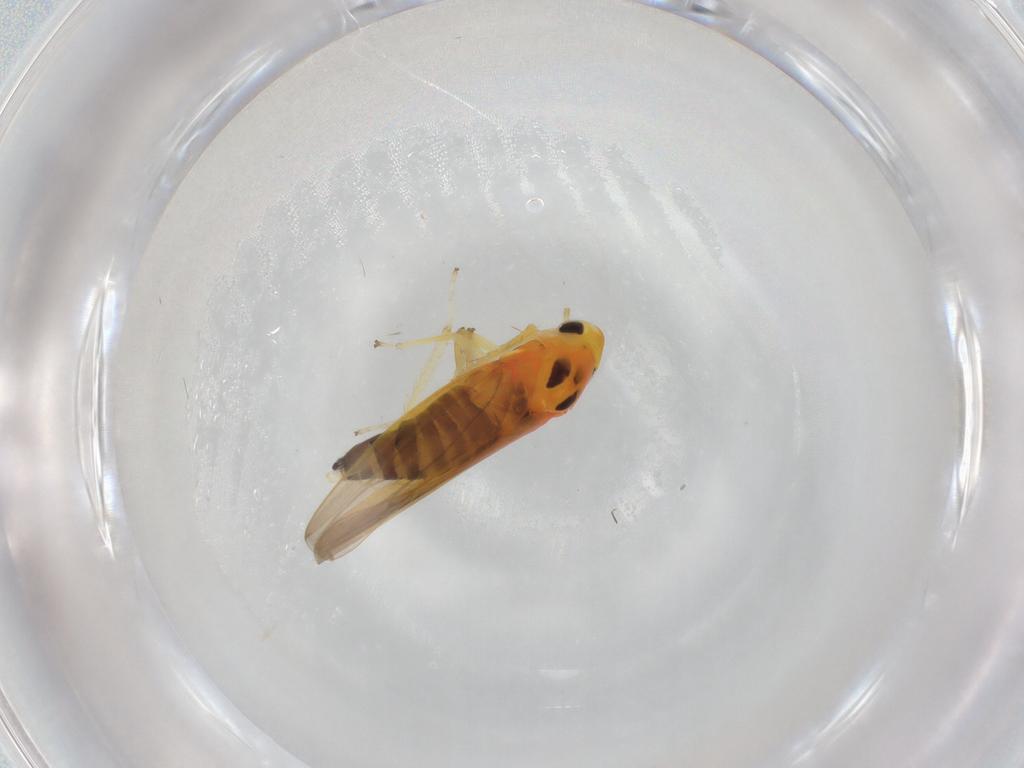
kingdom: Animalia
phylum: Arthropoda
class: Insecta
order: Hemiptera
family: Cicadellidae
